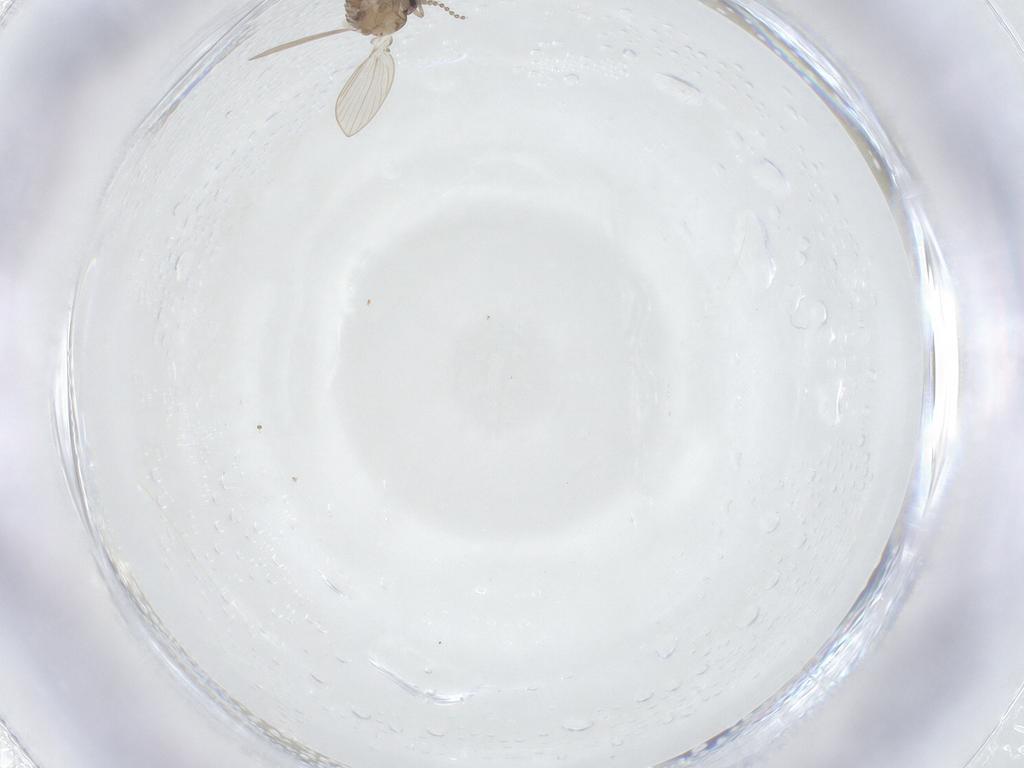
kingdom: Animalia
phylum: Arthropoda
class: Insecta
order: Diptera
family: Psychodidae
